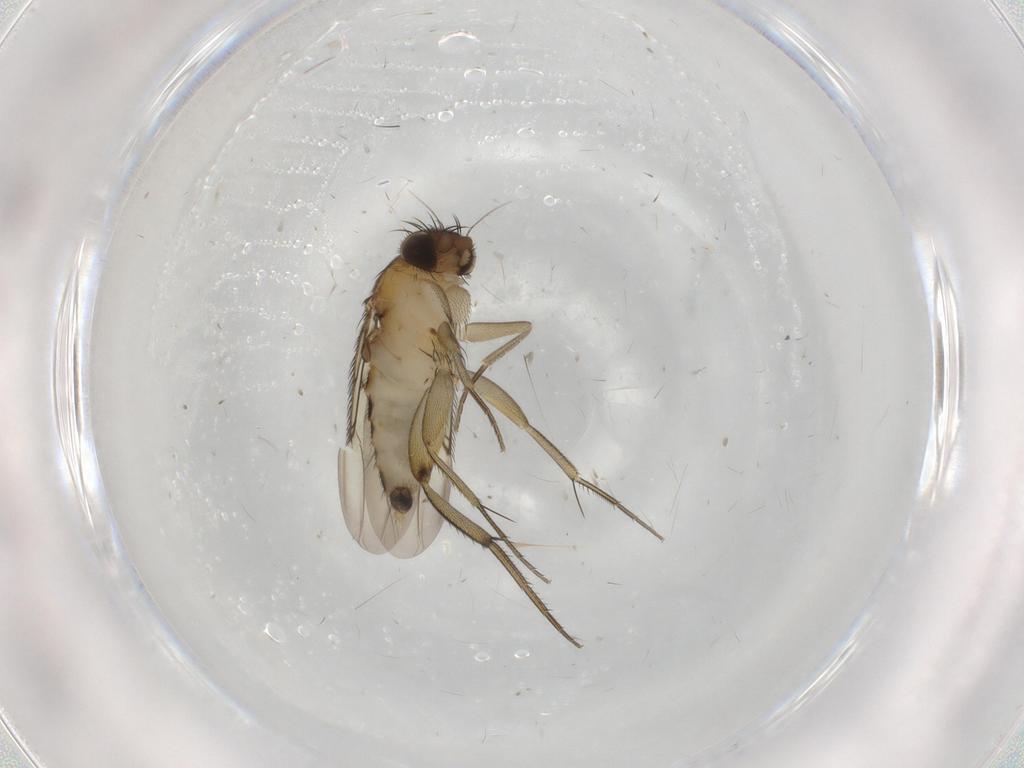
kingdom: Animalia
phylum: Arthropoda
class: Insecta
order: Diptera
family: Phoridae
